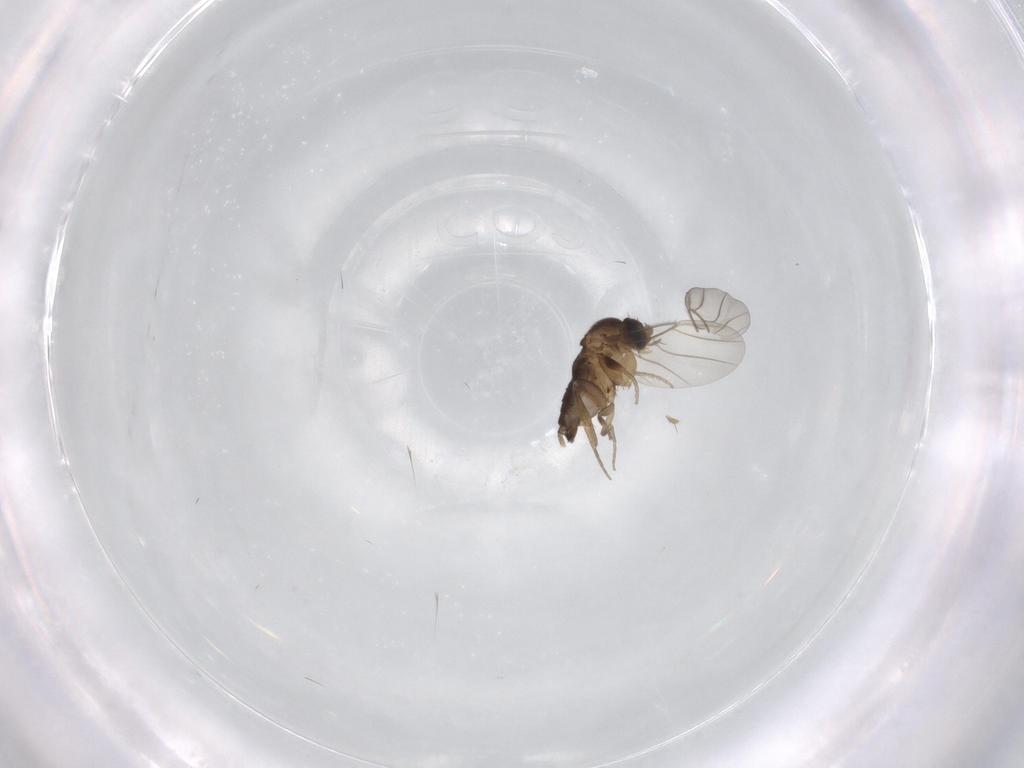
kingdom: Animalia
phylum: Arthropoda
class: Insecta
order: Diptera
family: Phoridae
